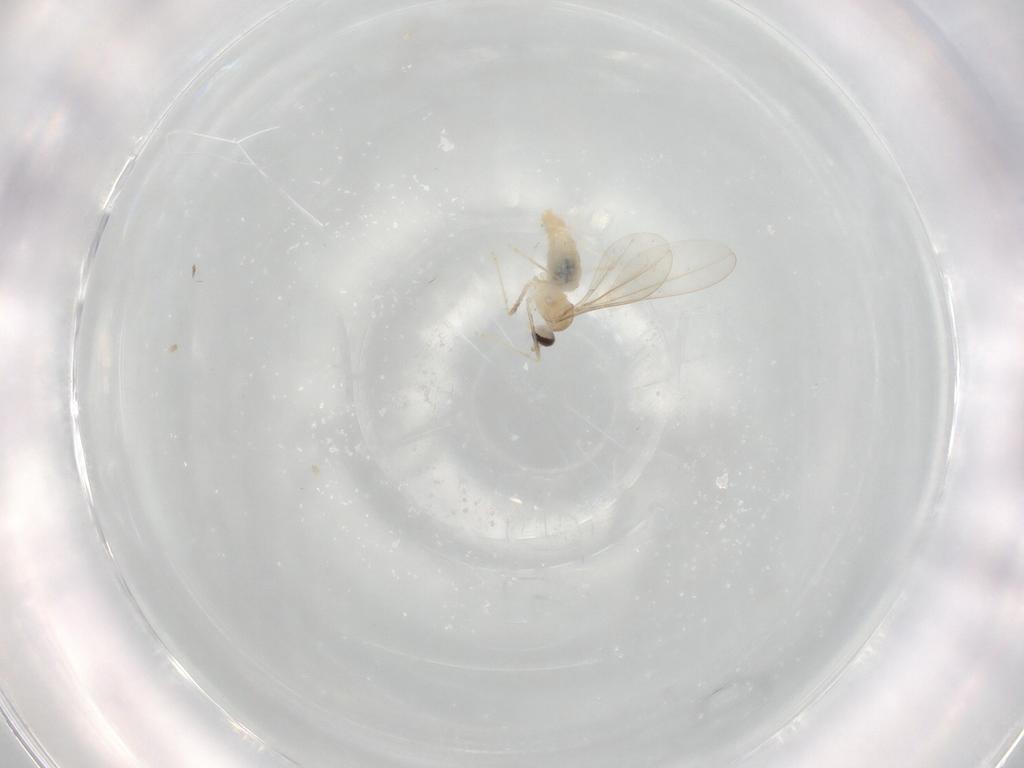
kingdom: Animalia
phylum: Arthropoda
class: Insecta
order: Diptera
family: Cecidomyiidae
